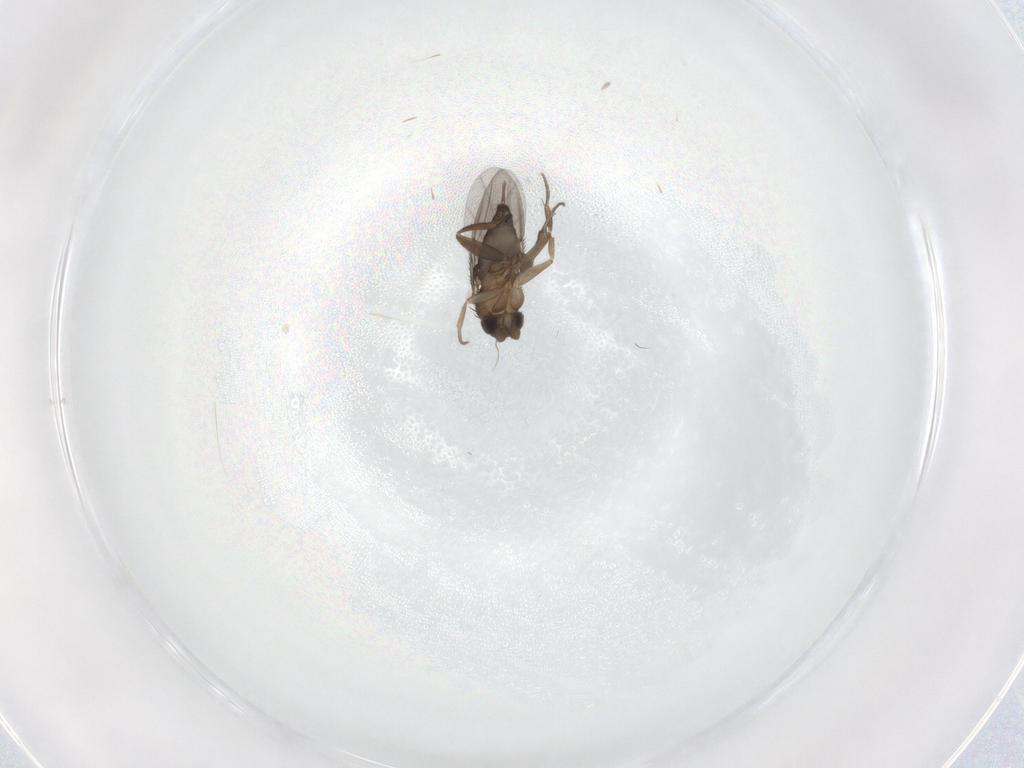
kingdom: Animalia
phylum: Arthropoda
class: Insecta
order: Diptera
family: Phoridae
